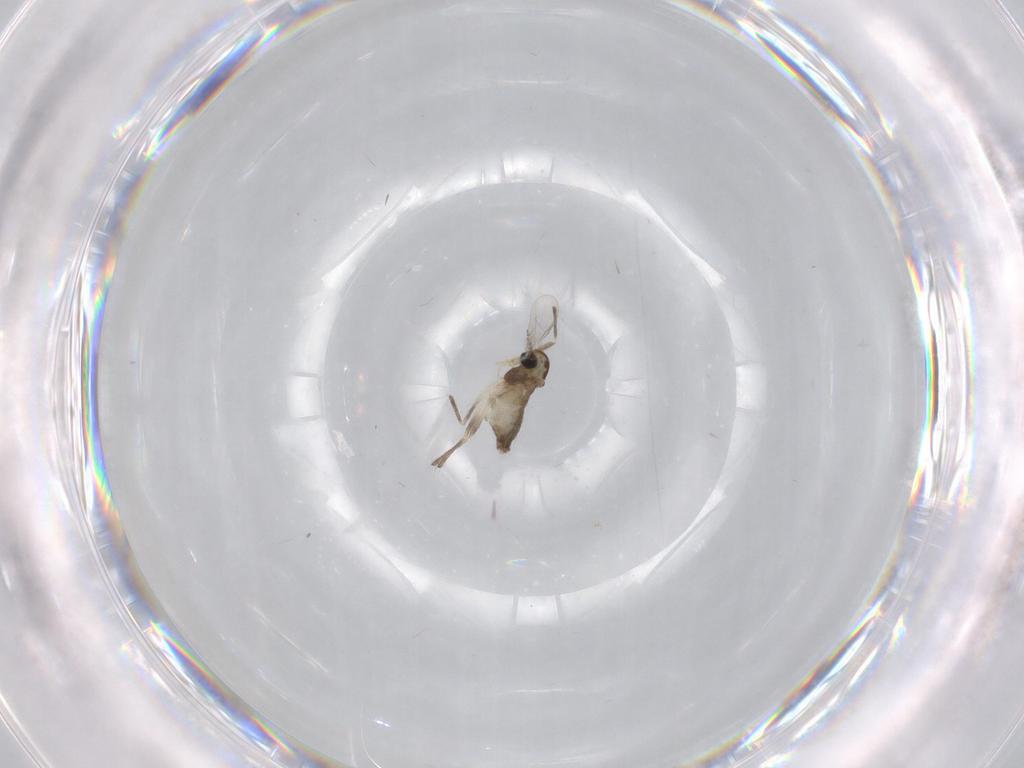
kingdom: Animalia
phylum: Arthropoda
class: Insecta
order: Diptera
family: Chironomidae
